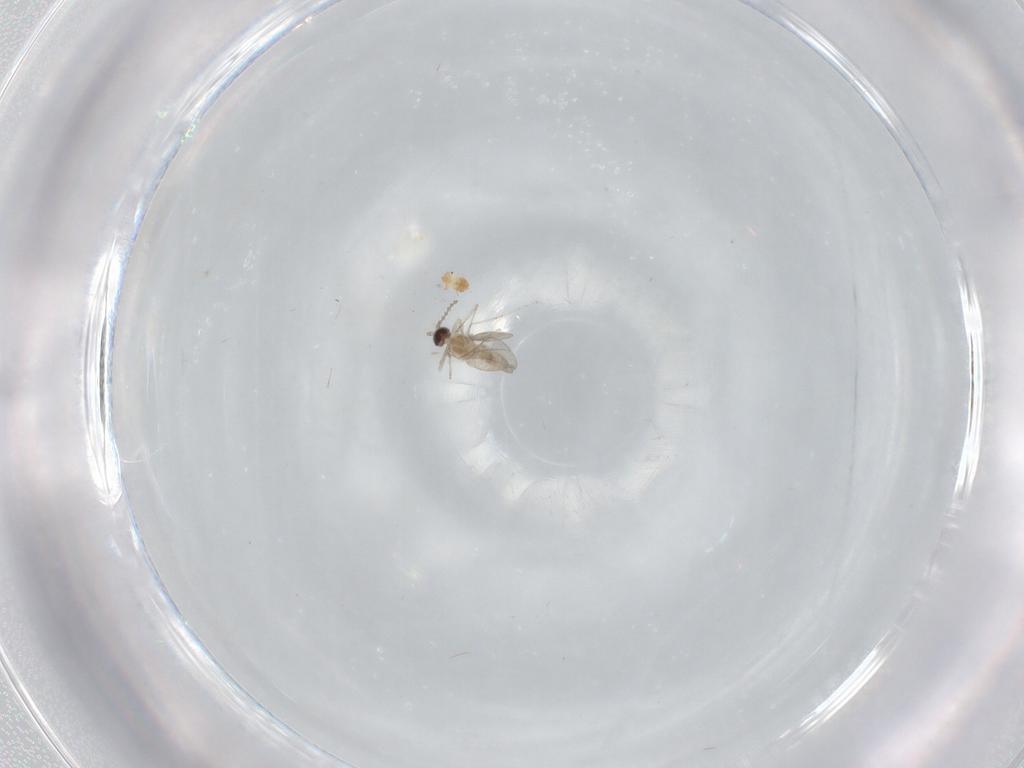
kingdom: Animalia
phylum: Arthropoda
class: Insecta
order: Diptera
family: Cecidomyiidae
